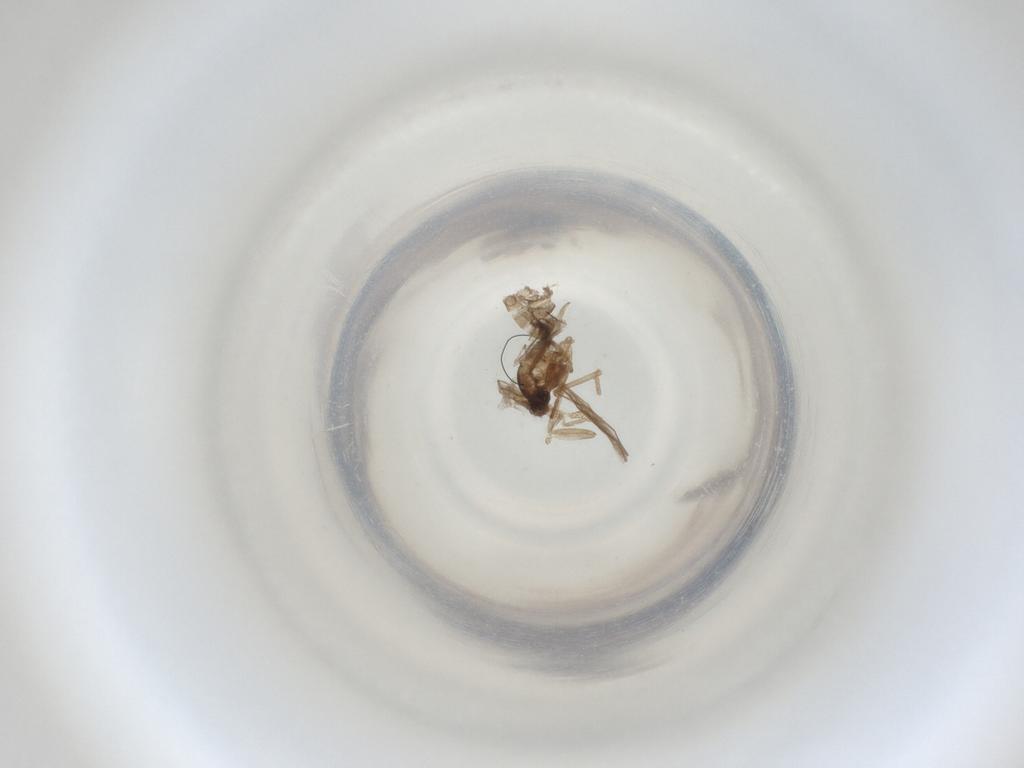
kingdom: Animalia
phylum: Arthropoda
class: Insecta
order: Diptera
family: Cecidomyiidae
